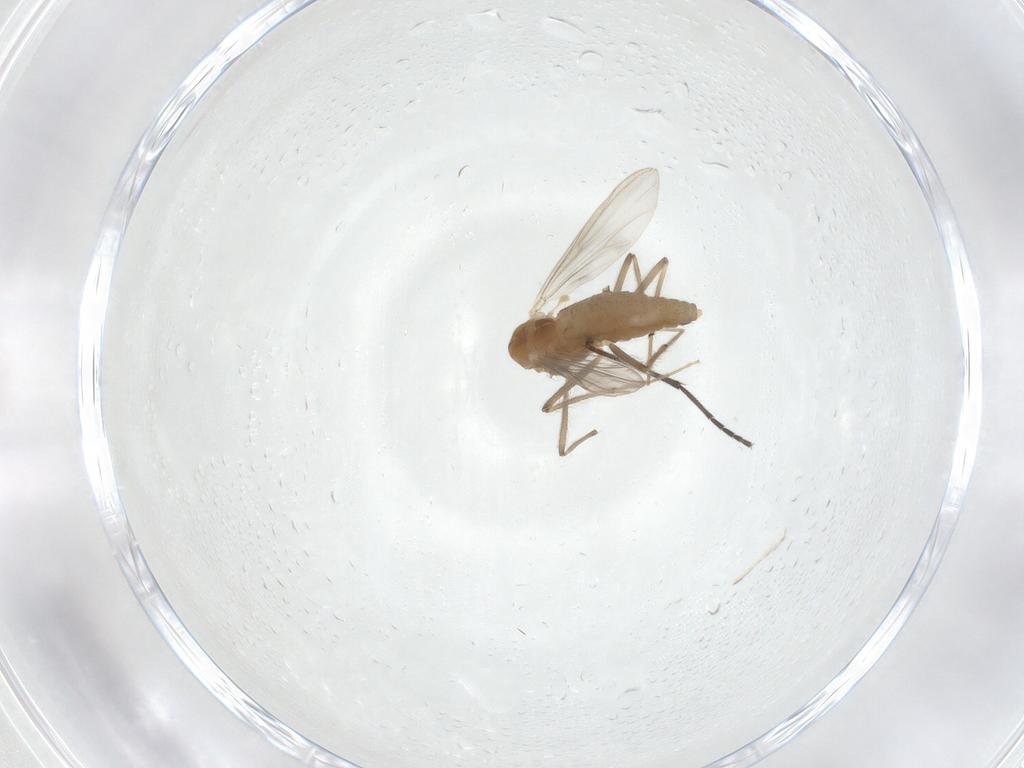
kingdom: Animalia
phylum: Arthropoda
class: Insecta
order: Diptera
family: Chironomidae
